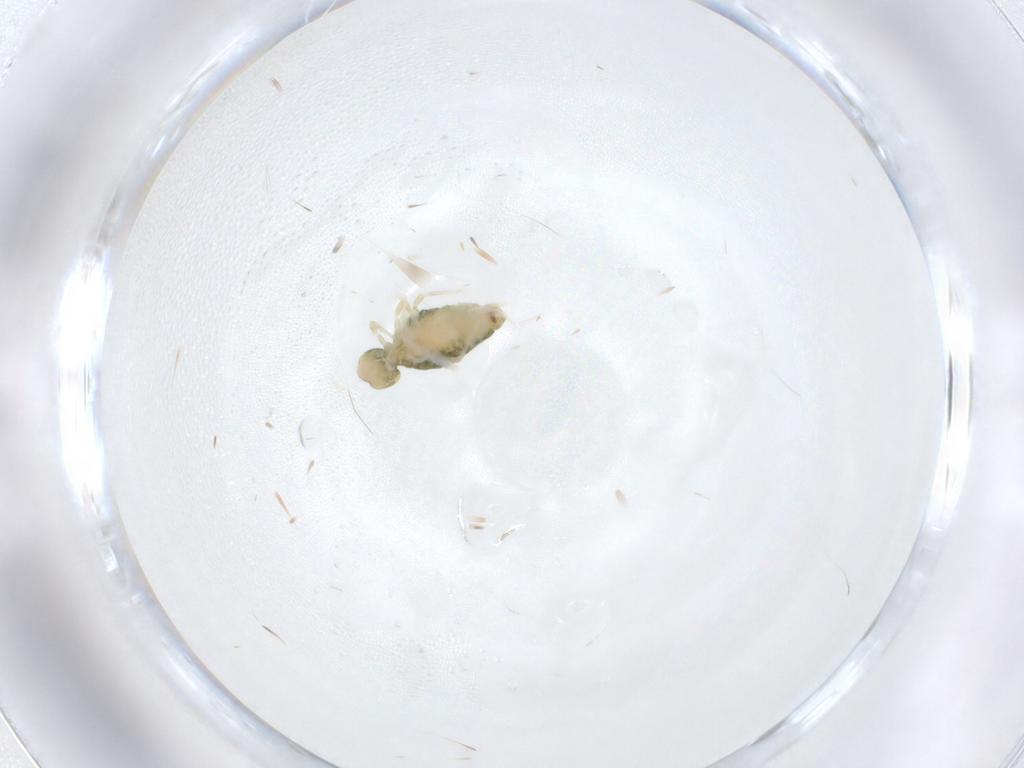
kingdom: Animalia
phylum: Arthropoda
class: Collembola
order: Symphypleona
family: Katiannidae
